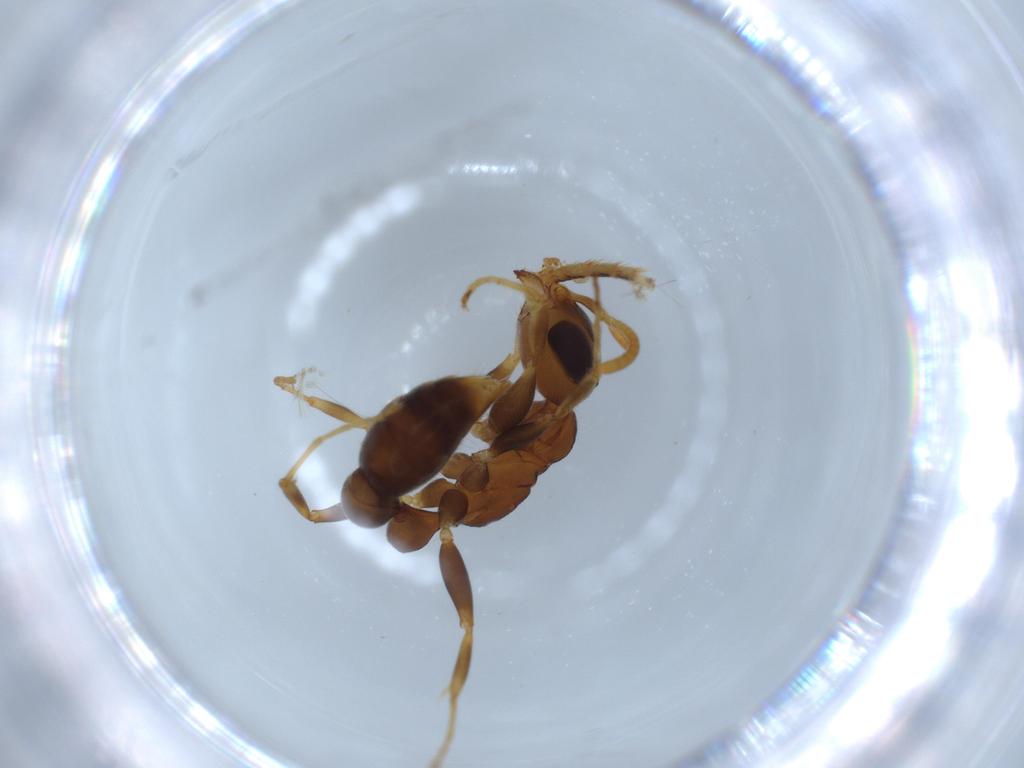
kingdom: Animalia
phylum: Arthropoda
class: Insecta
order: Hymenoptera
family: Formicidae
